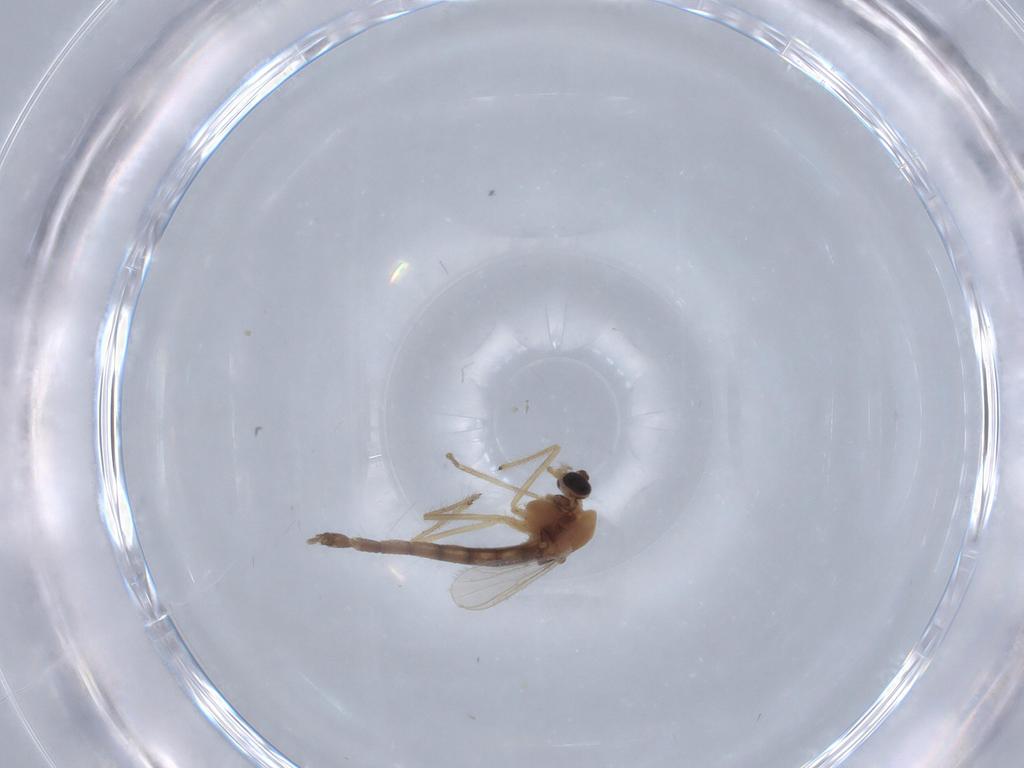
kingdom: Animalia
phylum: Arthropoda
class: Insecta
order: Diptera
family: Chironomidae
